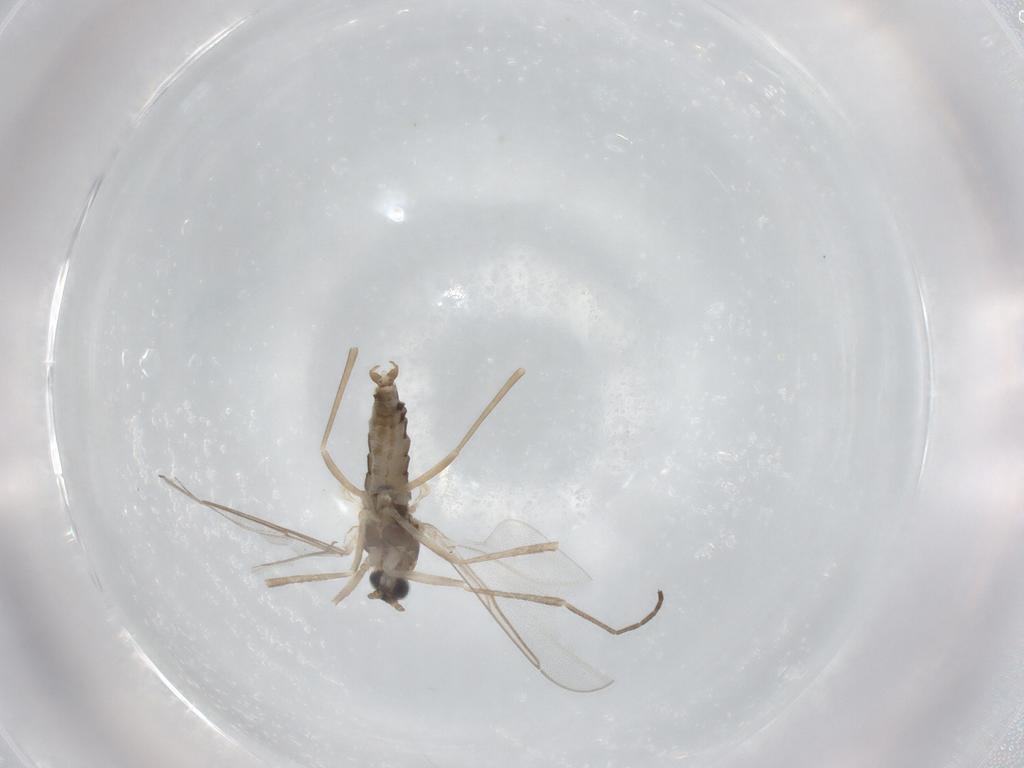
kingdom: Animalia
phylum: Arthropoda
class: Insecta
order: Diptera
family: Cecidomyiidae
